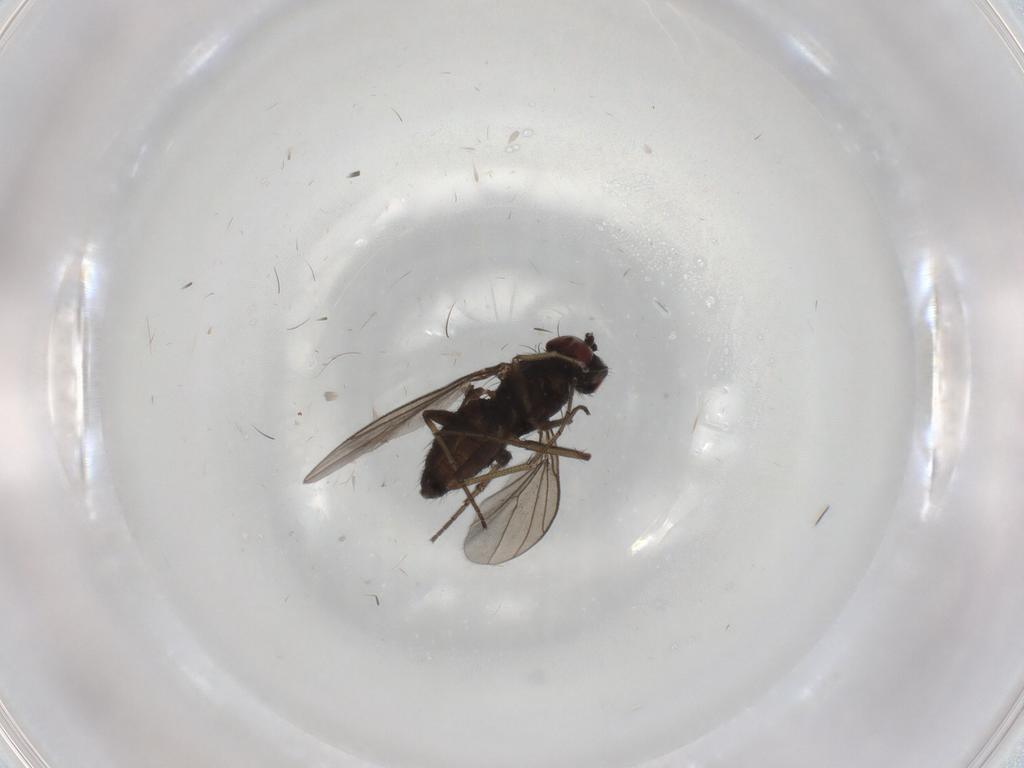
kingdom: Animalia
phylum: Arthropoda
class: Insecta
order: Diptera
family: Dolichopodidae
